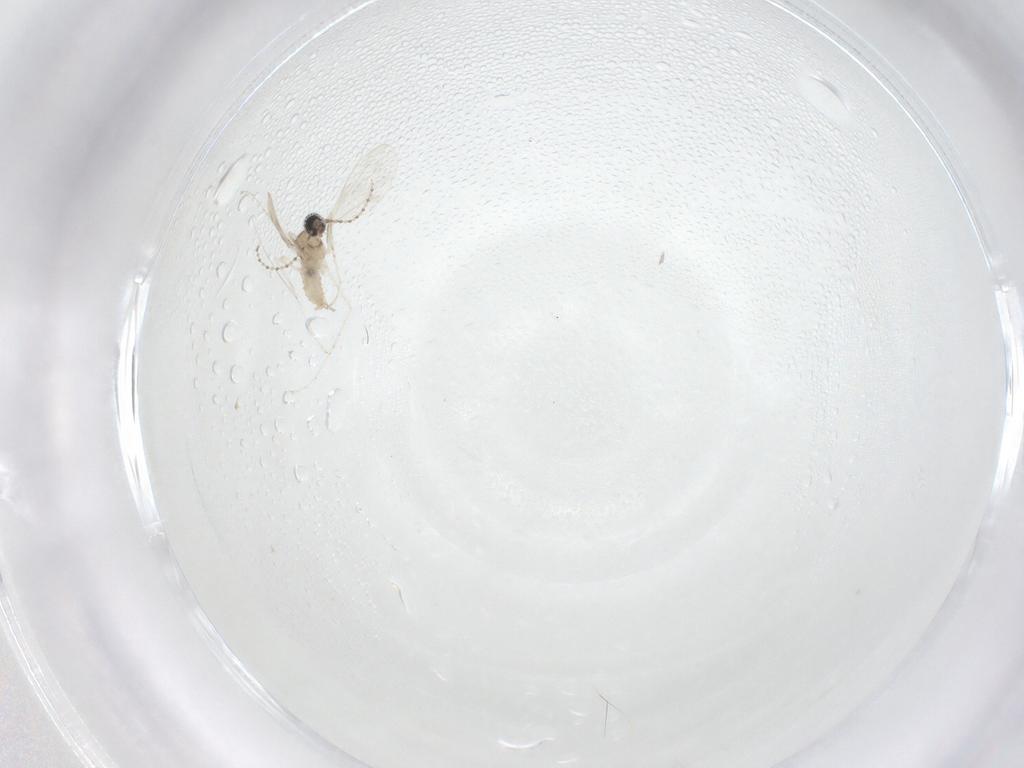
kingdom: Animalia
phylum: Arthropoda
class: Insecta
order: Diptera
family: Cecidomyiidae
